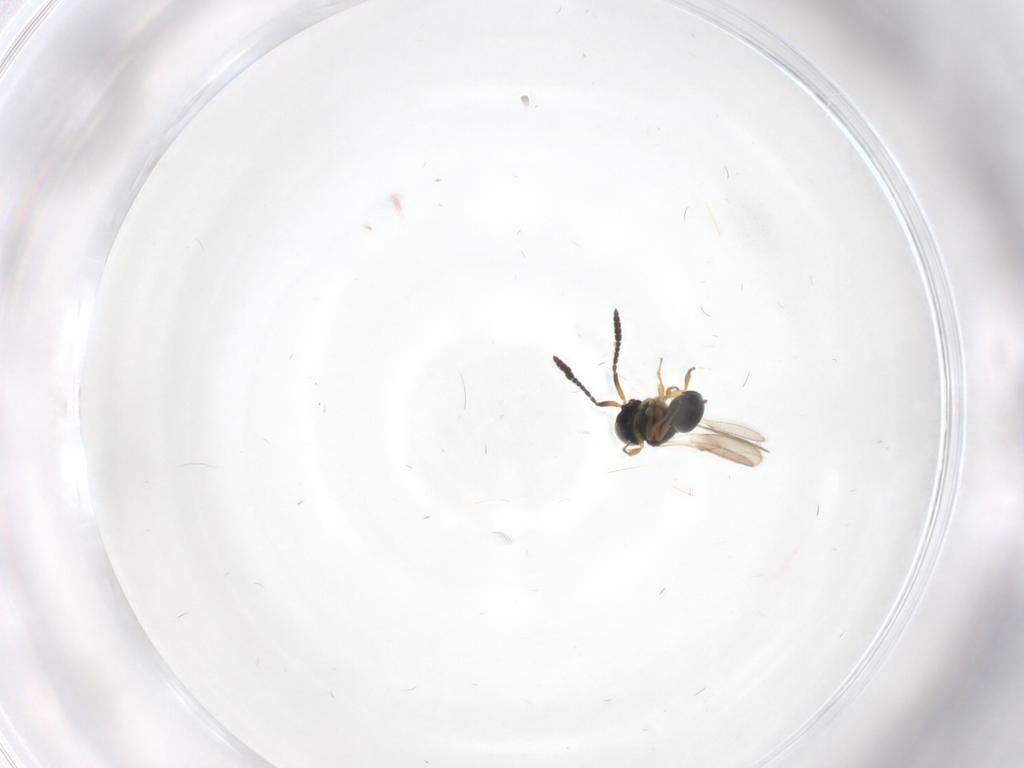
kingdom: Animalia
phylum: Arthropoda
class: Insecta
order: Hymenoptera
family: Scelionidae
